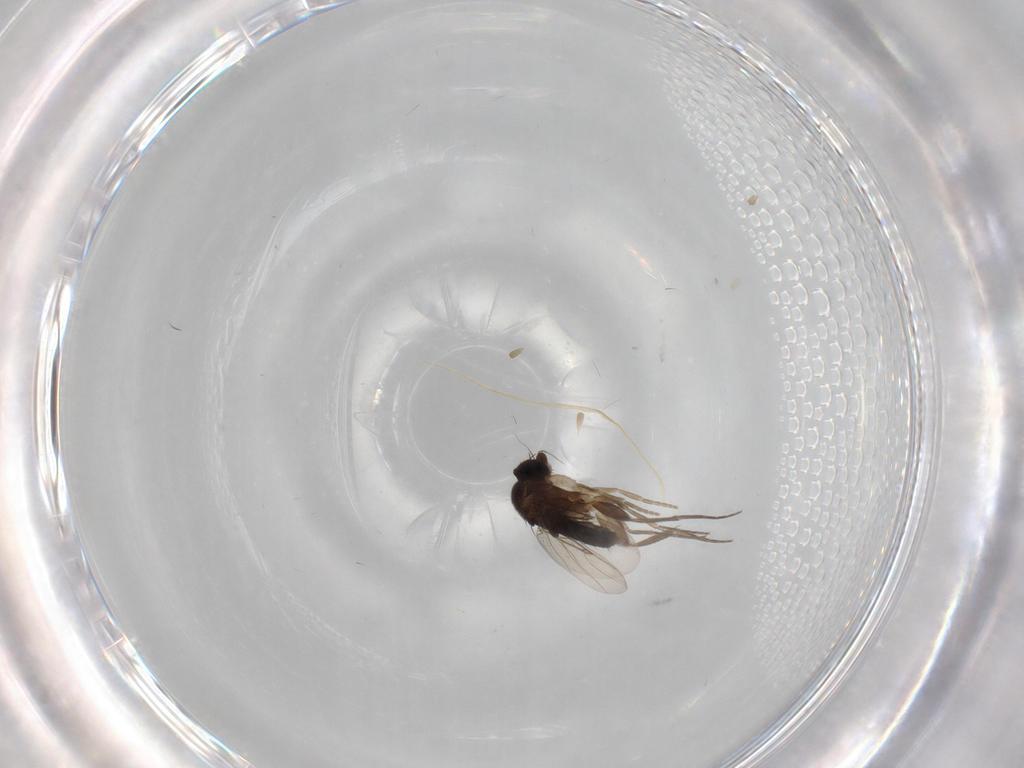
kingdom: Animalia
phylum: Arthropoda
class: Insecta
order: Diptera
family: Phoridae
